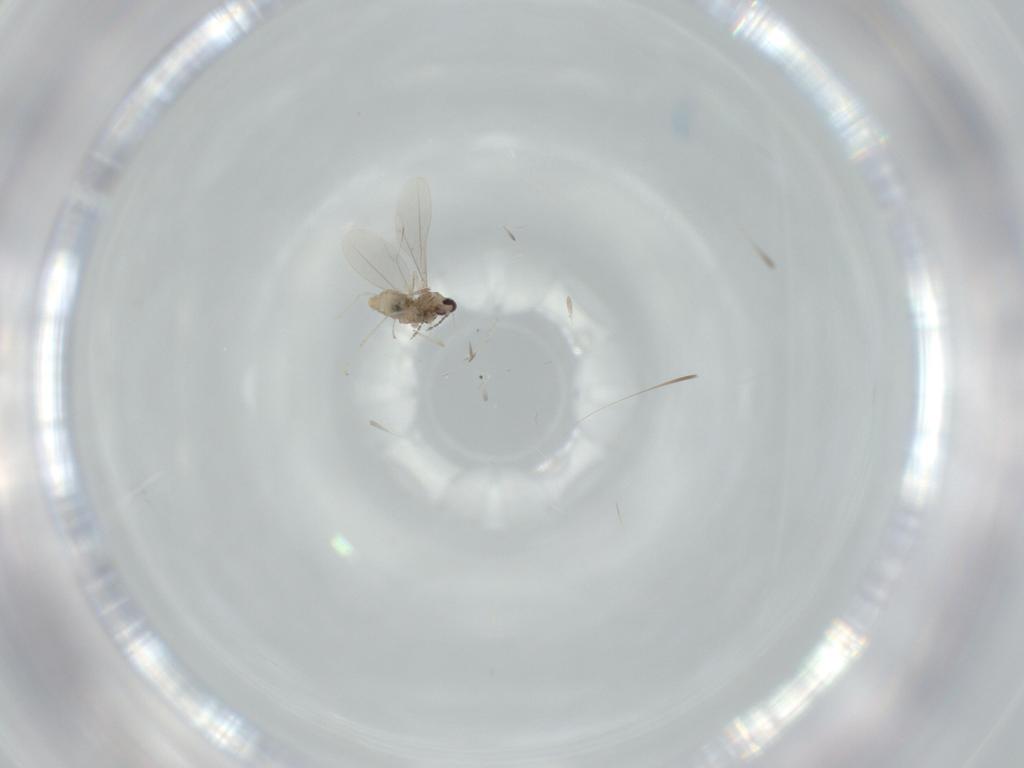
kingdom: Animalia
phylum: Arthropoda
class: Insecta
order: Diptera
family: Cecidomyiidae
